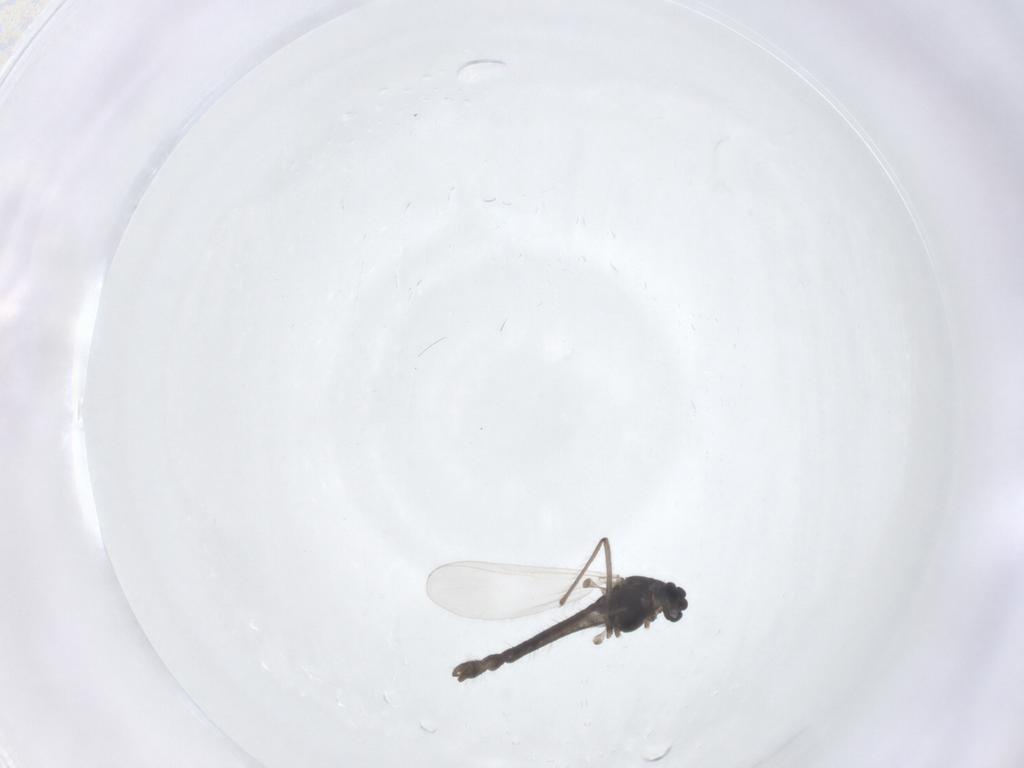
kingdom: Animalia
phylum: Arthropoda
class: Insecta
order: Diptera
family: Chironomidae
